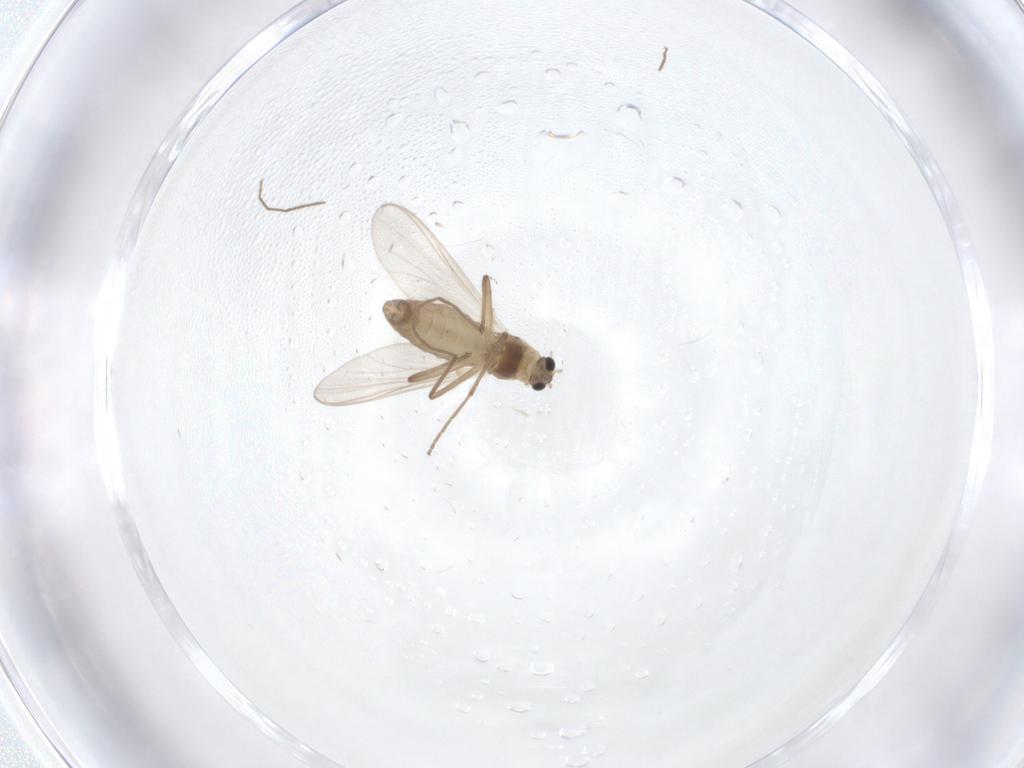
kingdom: Animalia
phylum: Arthropoda
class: Insecta
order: Diptera
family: Chironomidae
